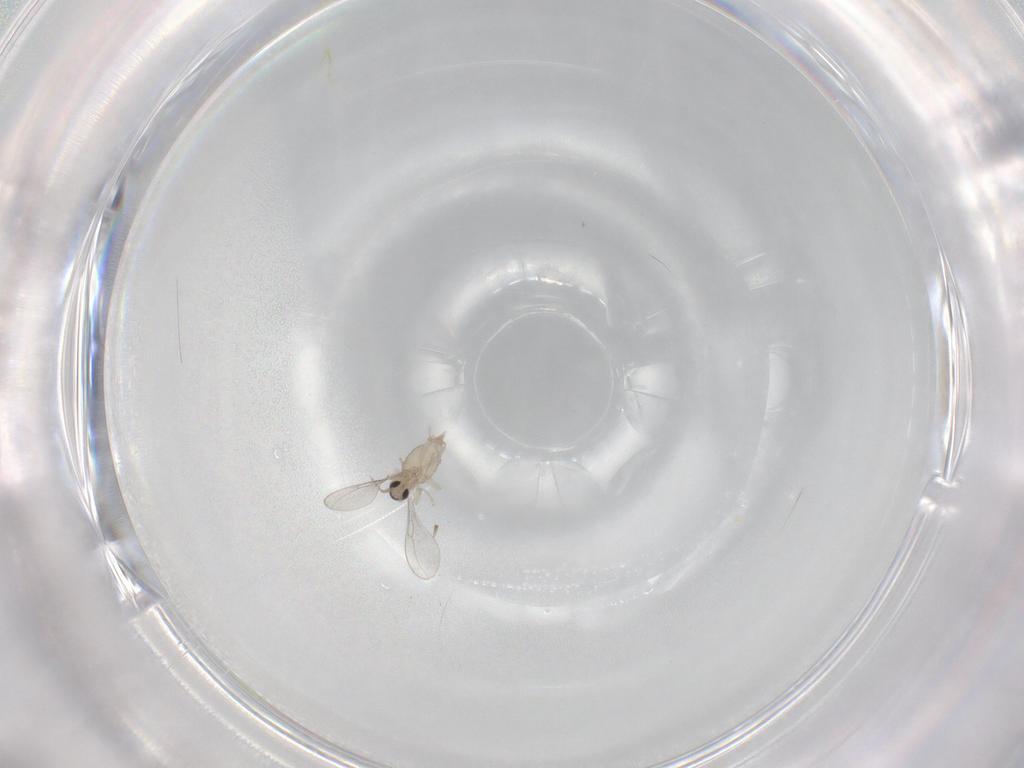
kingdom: Animalia
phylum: Arthropoda
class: Insecta
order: Diptera
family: Cecidomyiidae
